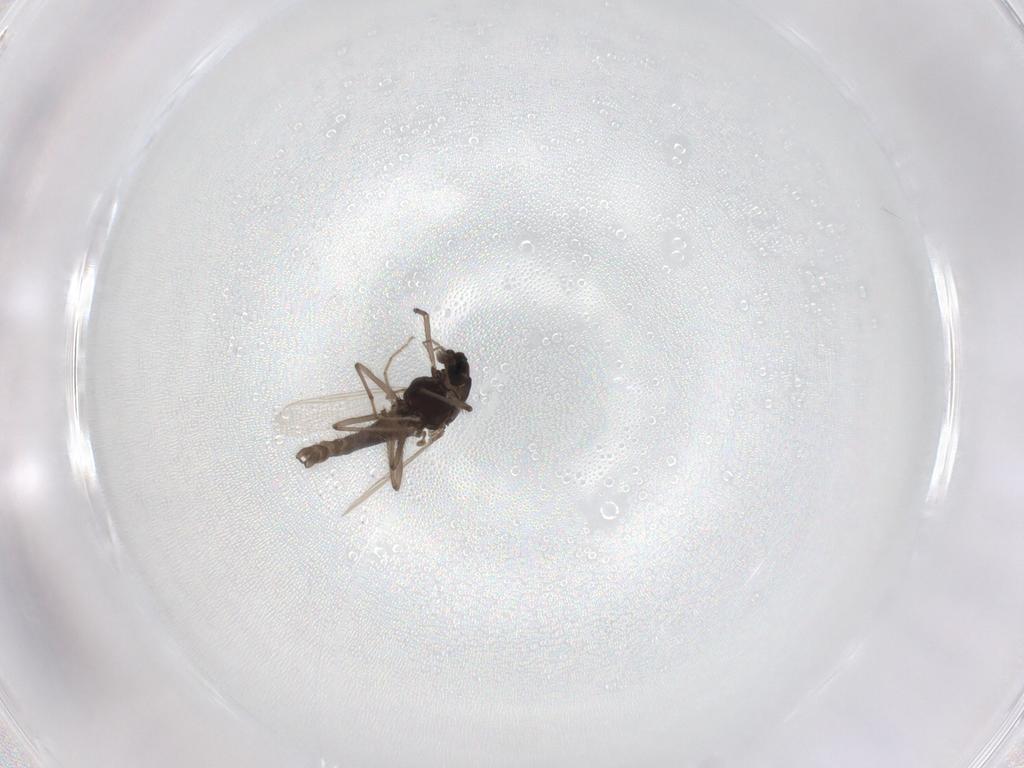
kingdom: Animalia
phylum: Arthropoda
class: Insecta
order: Diptera
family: Chironomidae
